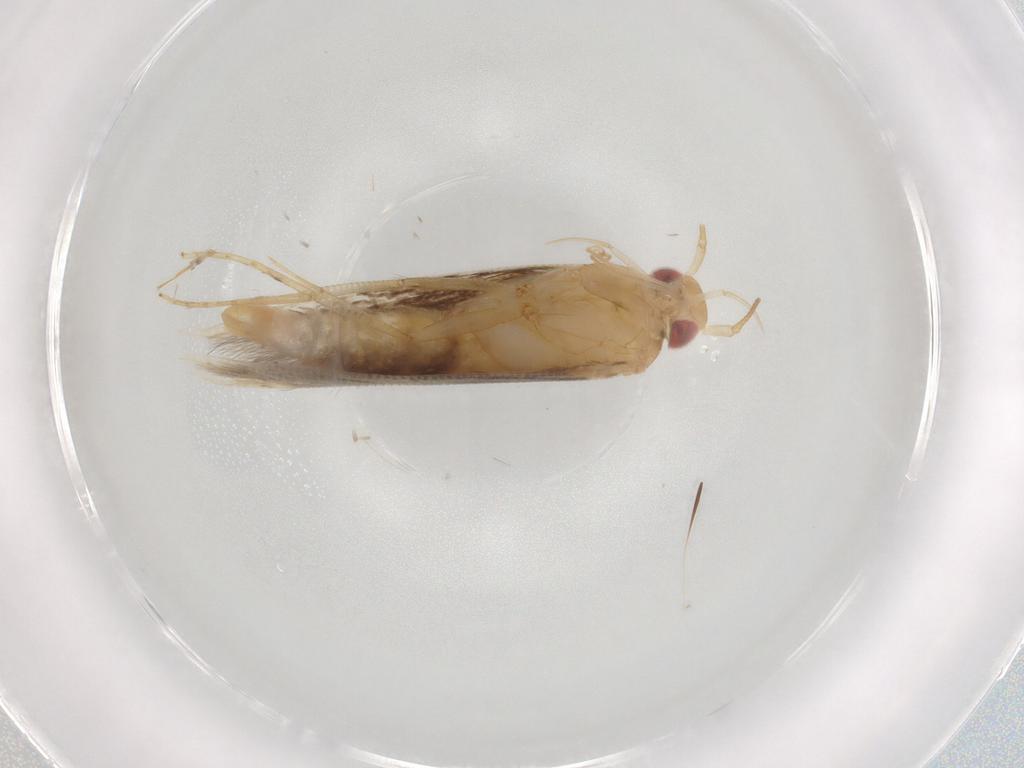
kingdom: Animalia
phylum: Arthropoda
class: Insecta
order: Lepidoptera
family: Cosmopterigidae
